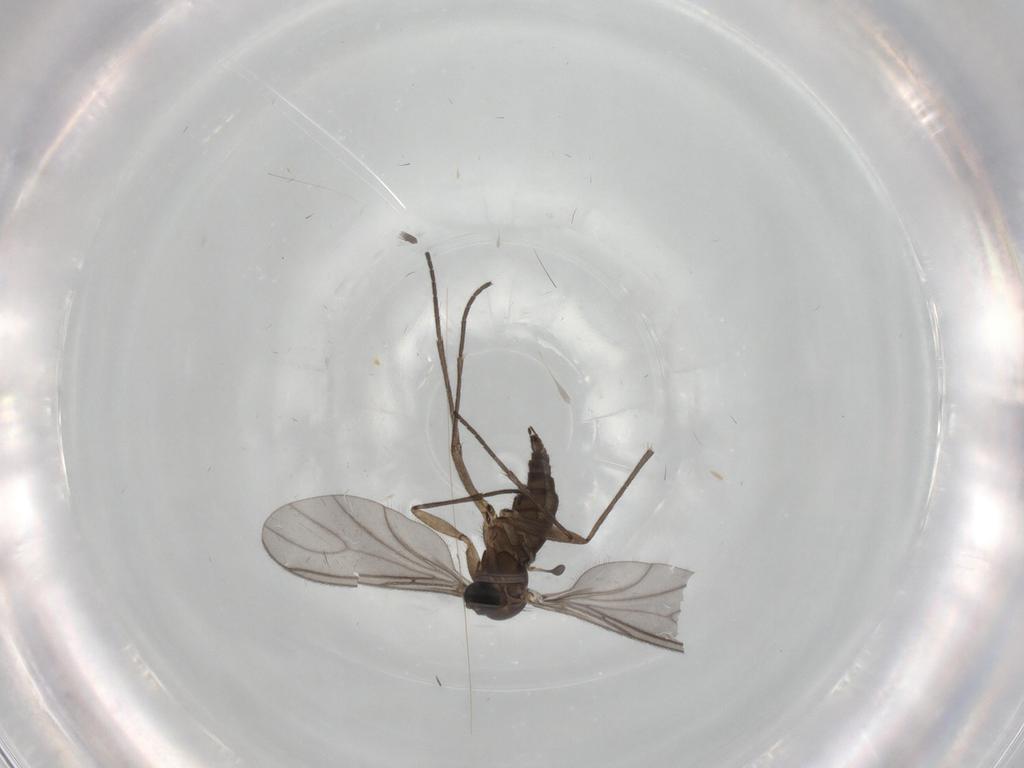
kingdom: Animalia
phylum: Arthropoda
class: Insecta
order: Diptera
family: Sciaridae
